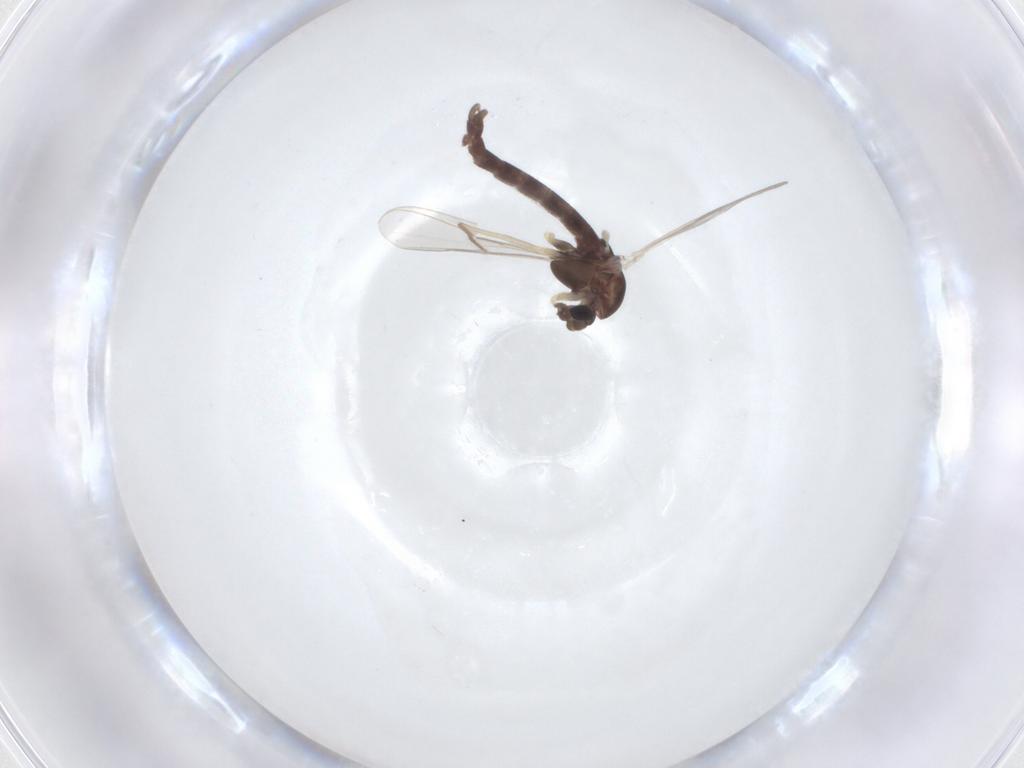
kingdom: Animalia
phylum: Arthropoda
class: Insecta
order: Diptera
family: Chironomidae
